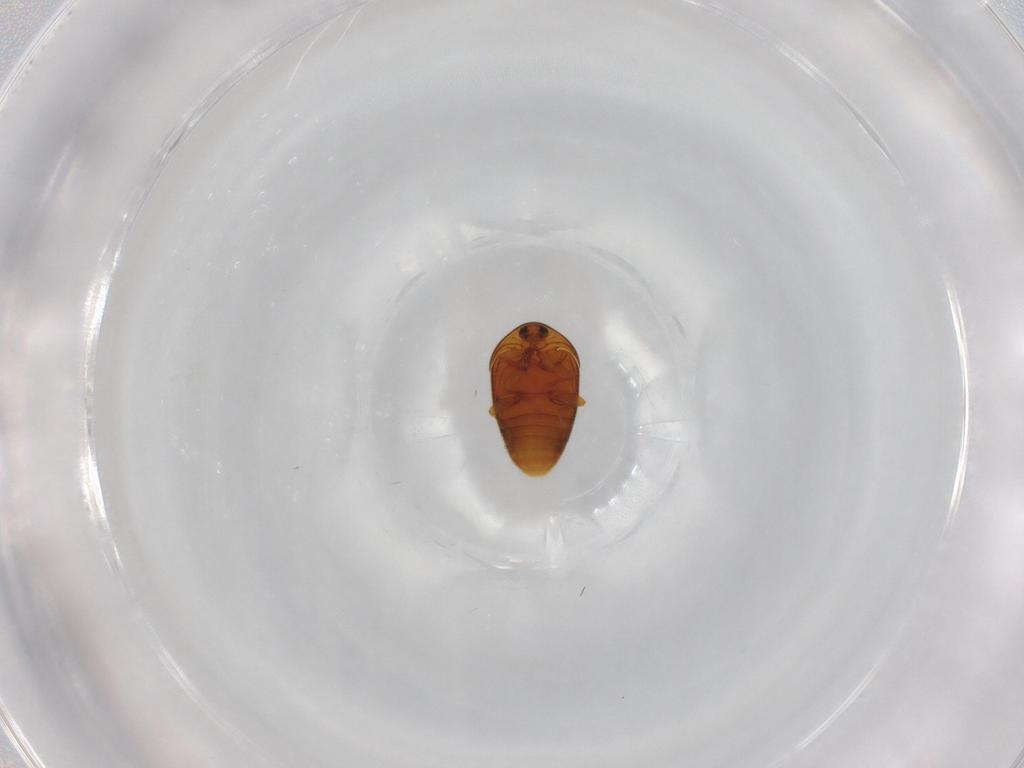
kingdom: Animalia
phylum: Arthropoda
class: Insecta
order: Coleoptera
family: Corylophidae
